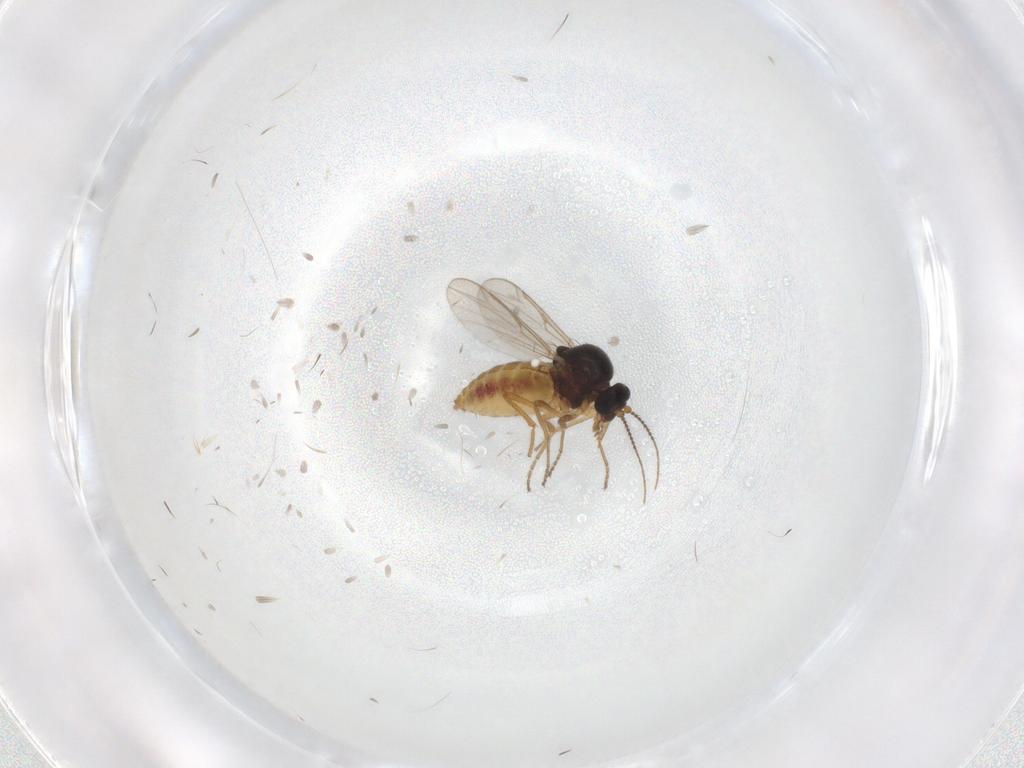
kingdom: Animalia
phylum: Arthropoda
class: Insecta
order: Diptera
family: Ceratopogonidae
